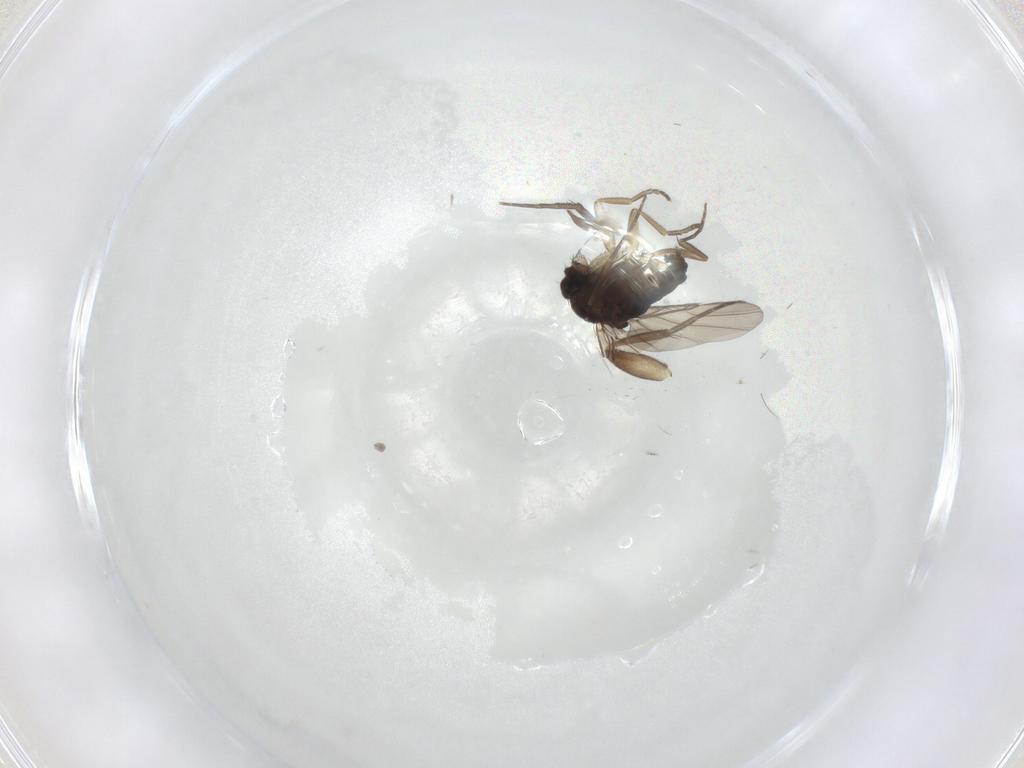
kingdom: Animalia
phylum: Arthropoda
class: Insecta
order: Diptera
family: Phoridae
